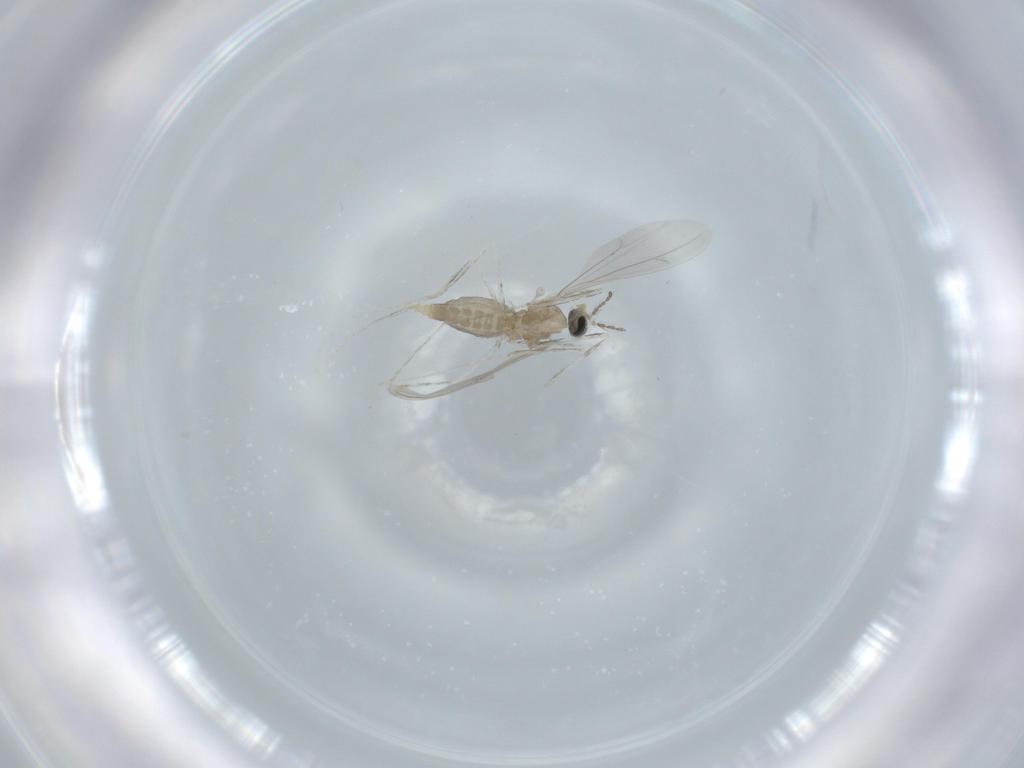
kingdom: Animalia
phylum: Arthropoda
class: Insecta
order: Diptera
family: Cecidomyiidae
